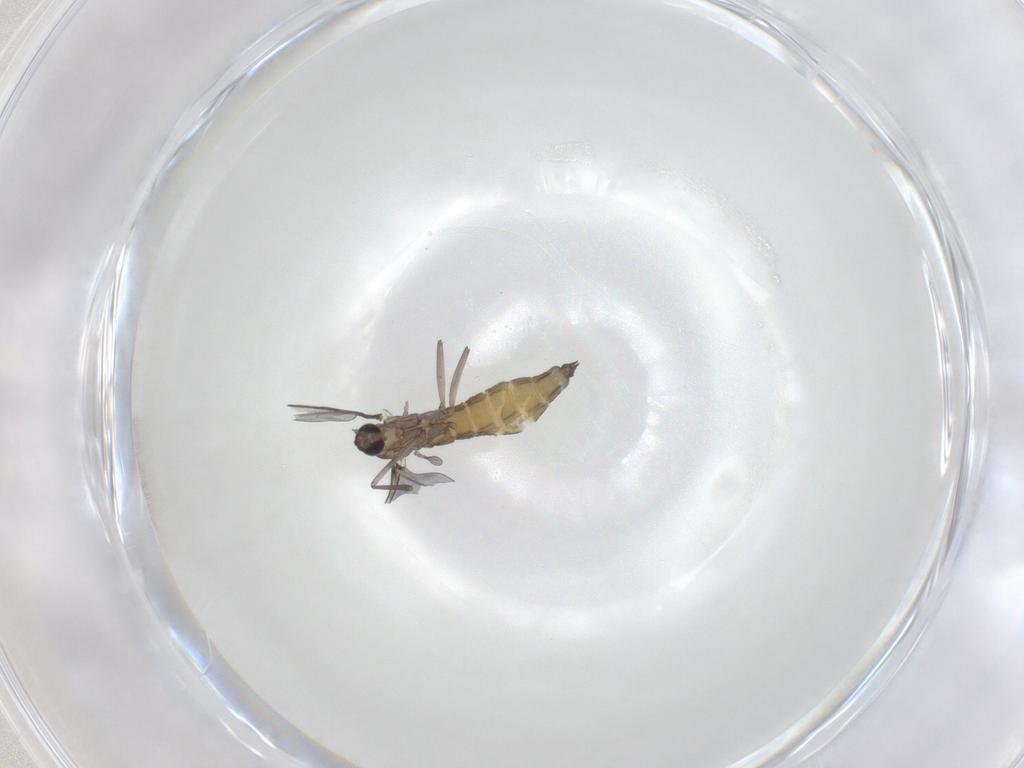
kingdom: Animalia
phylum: Arthropoda
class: Insecta
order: Diptera
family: Cecidomyiidae
